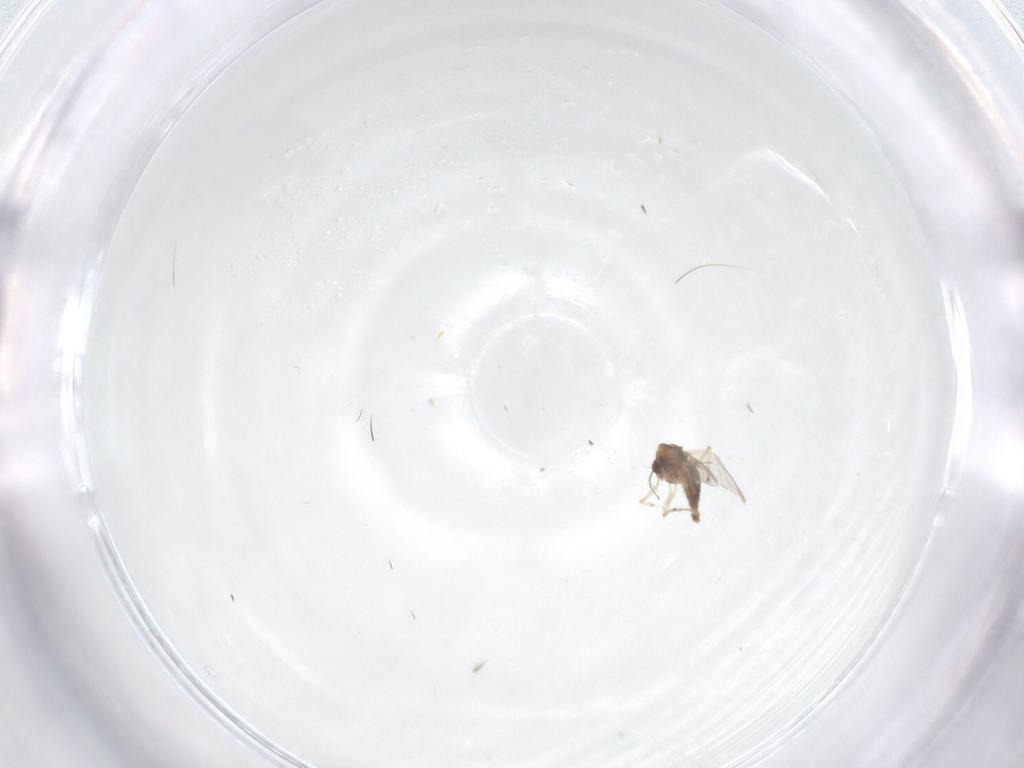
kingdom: Animalia
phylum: Arthropoda
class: Insecta
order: Diptera
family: Chironomidae
